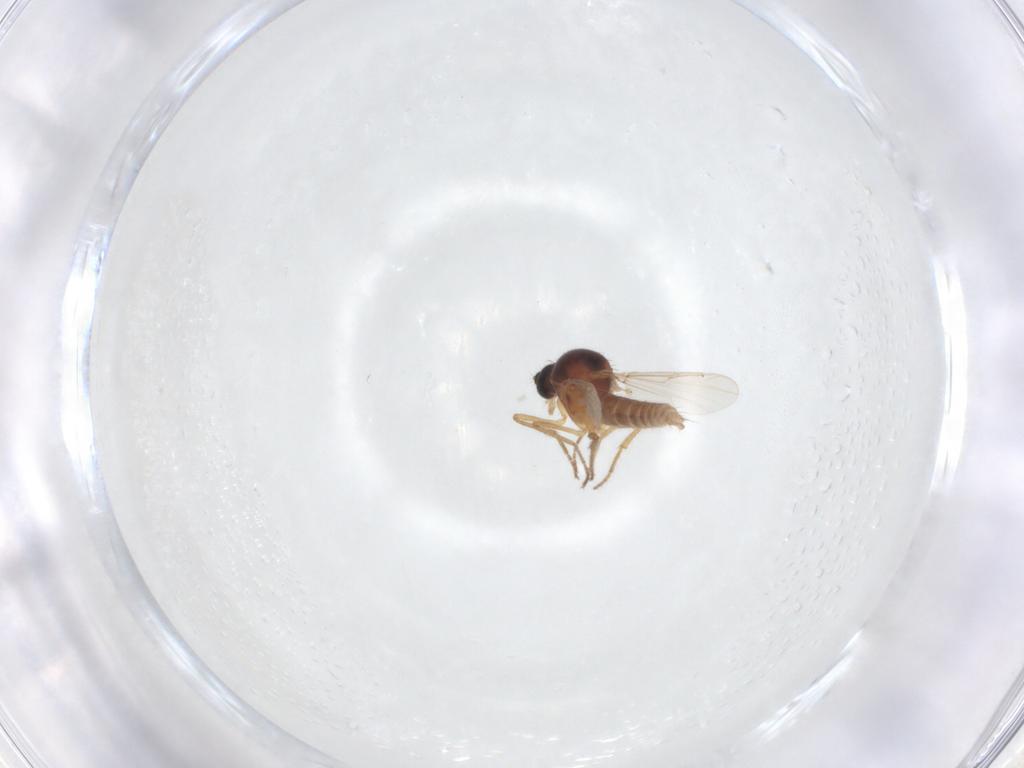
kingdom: Animalia
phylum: Arthropoda
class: Insecta
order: Diptera
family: Ceratopogonidae
